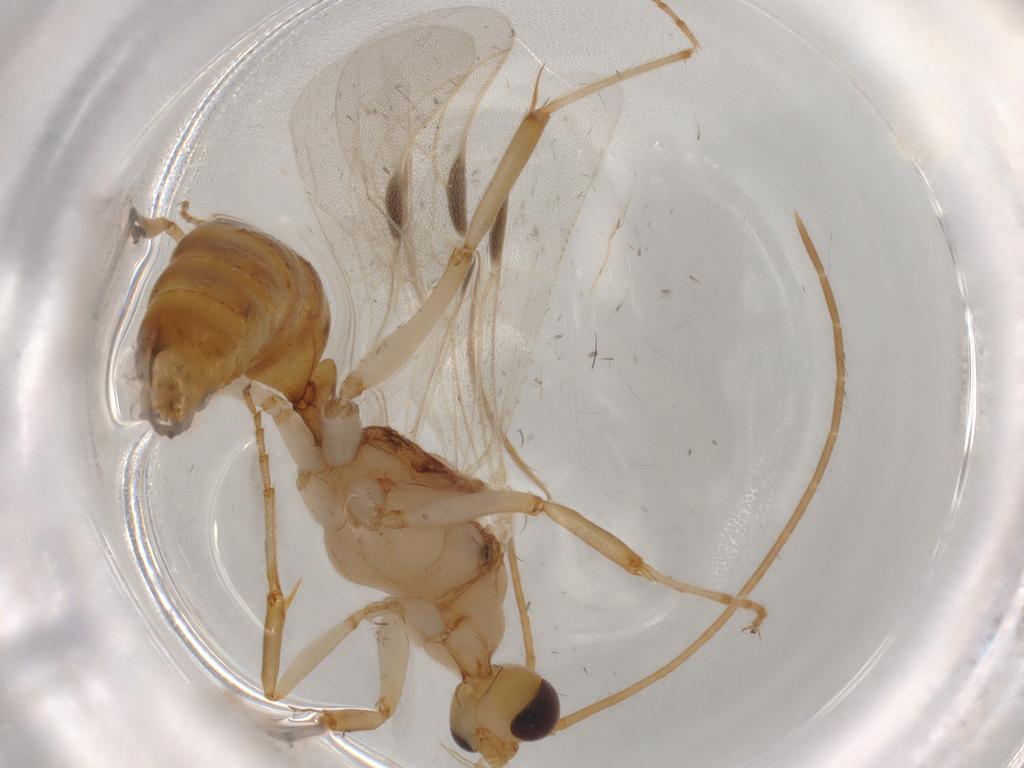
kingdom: Animalia
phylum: Arthropoda
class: Insecta
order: Hymenoptera
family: Formicidae
